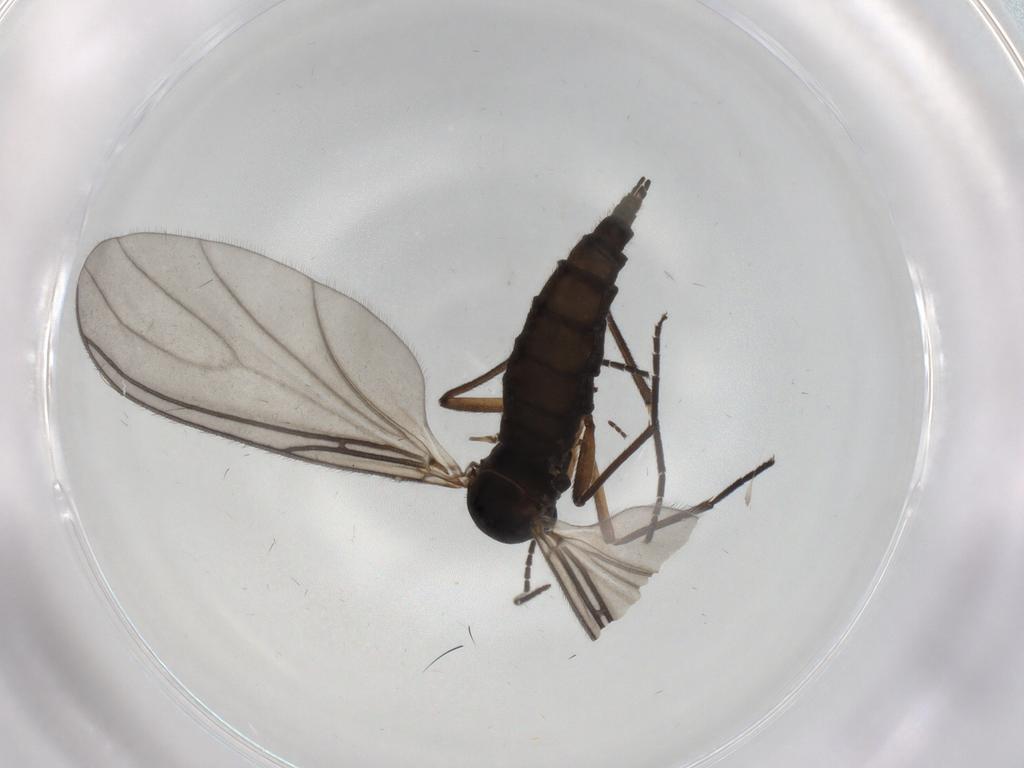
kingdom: Animalia
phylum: Arthropoda
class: Insecta
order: Diptera
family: Sciaridae
